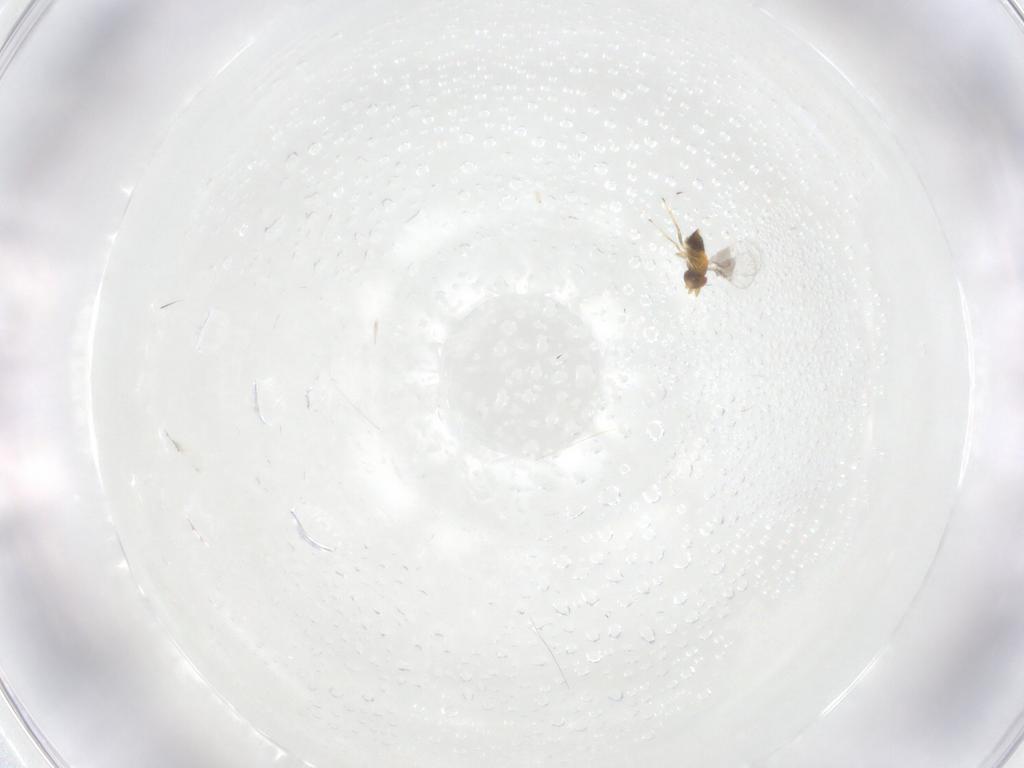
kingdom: Animalia
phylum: Arthropoda
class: Insecta
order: Hymenoptera
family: Trichogrammatidae
